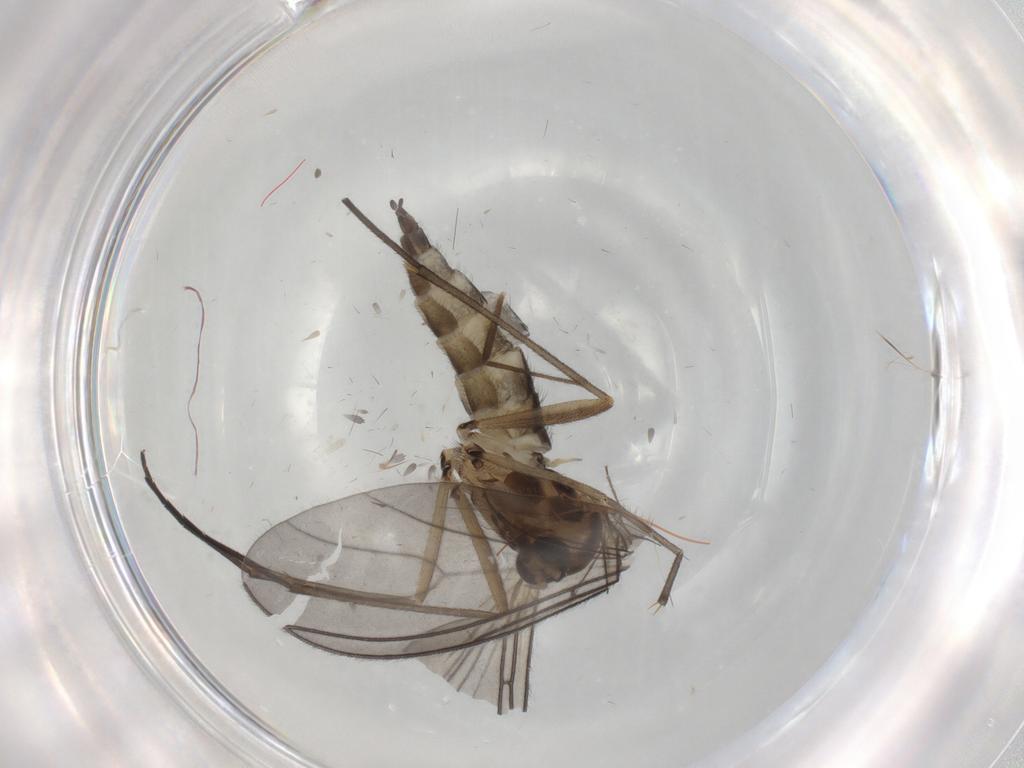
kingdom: Animalia
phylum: Arthropoda
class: Insecta
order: Diptera
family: Sciaridae
